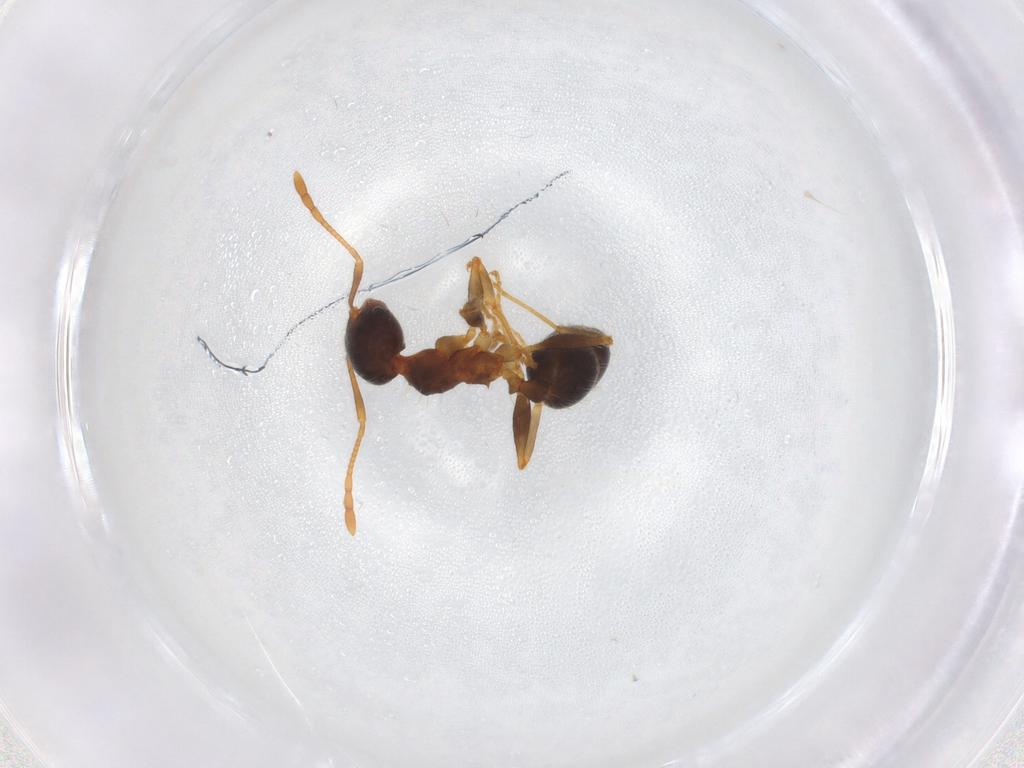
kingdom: Animalia
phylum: Arthropoda
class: Insecta
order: Hymenoptera
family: Formicidae
